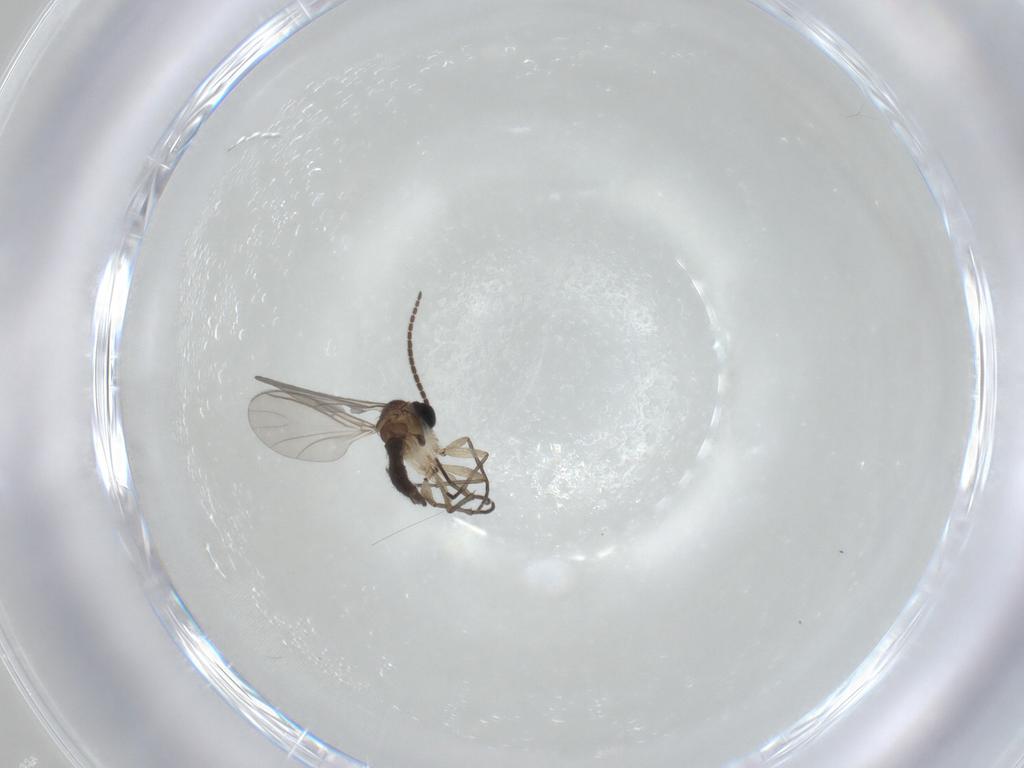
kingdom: Animalia
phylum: Arthropoda
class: Insecta
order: Diptera
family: Sciaridae
